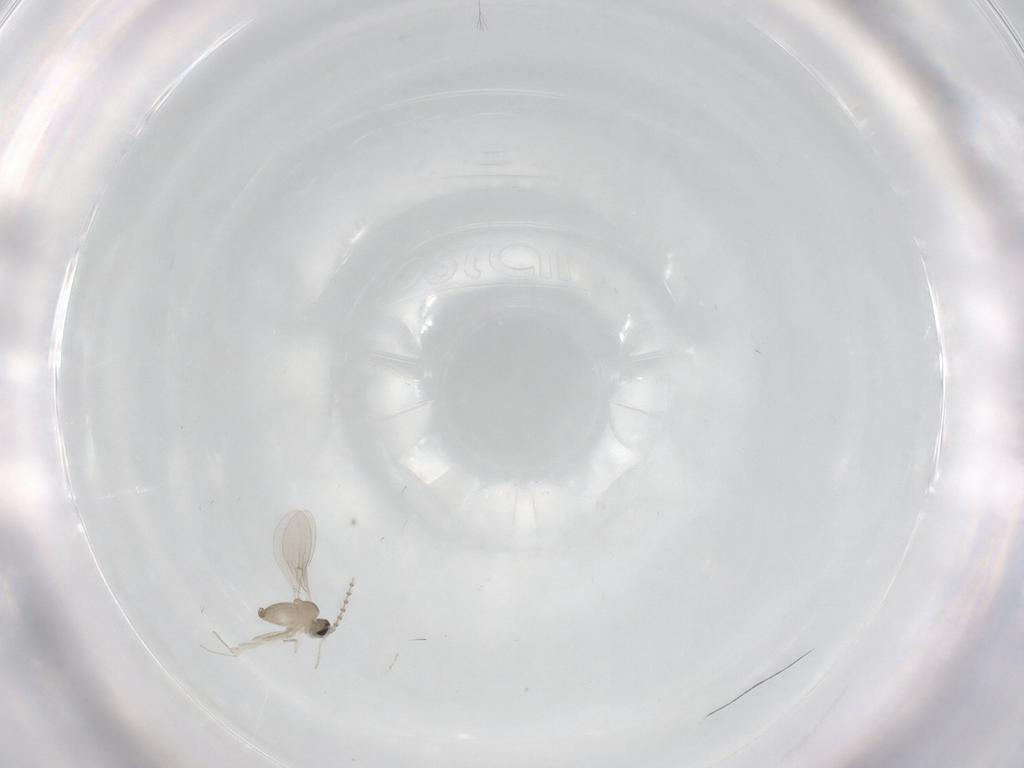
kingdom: Animalia
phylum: Arthropoda
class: Insecta
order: Diptera
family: Cecidomyiidae
